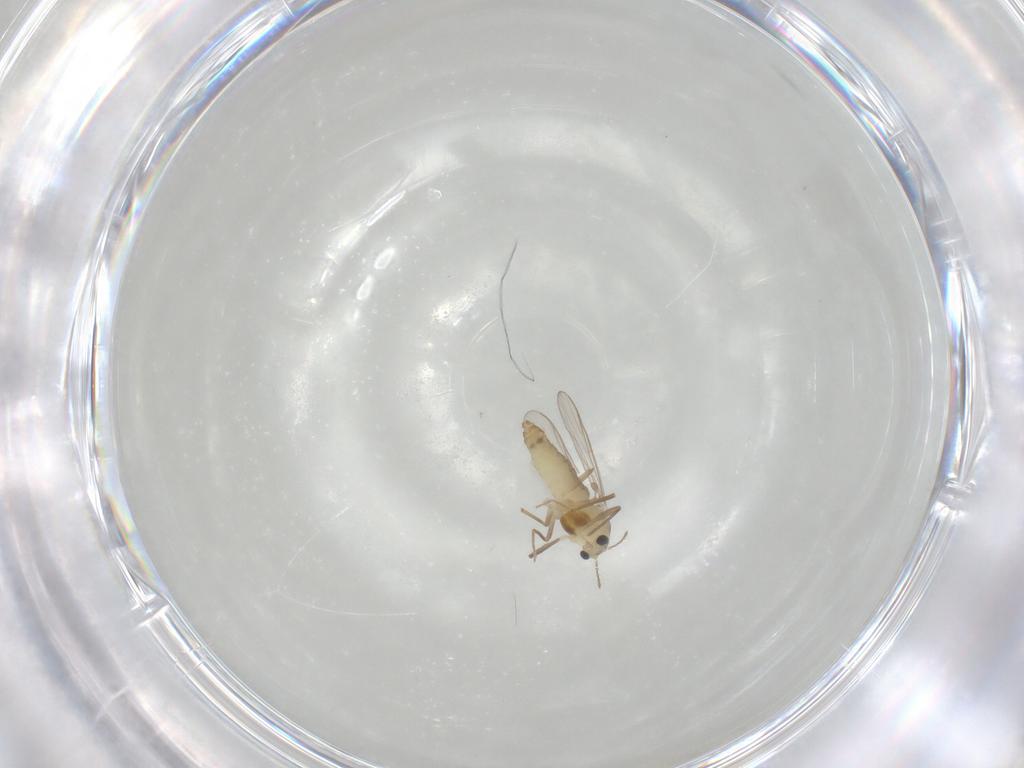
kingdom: Animalia
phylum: Arthropoda
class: Insecta
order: Diptera
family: Chironomidae
